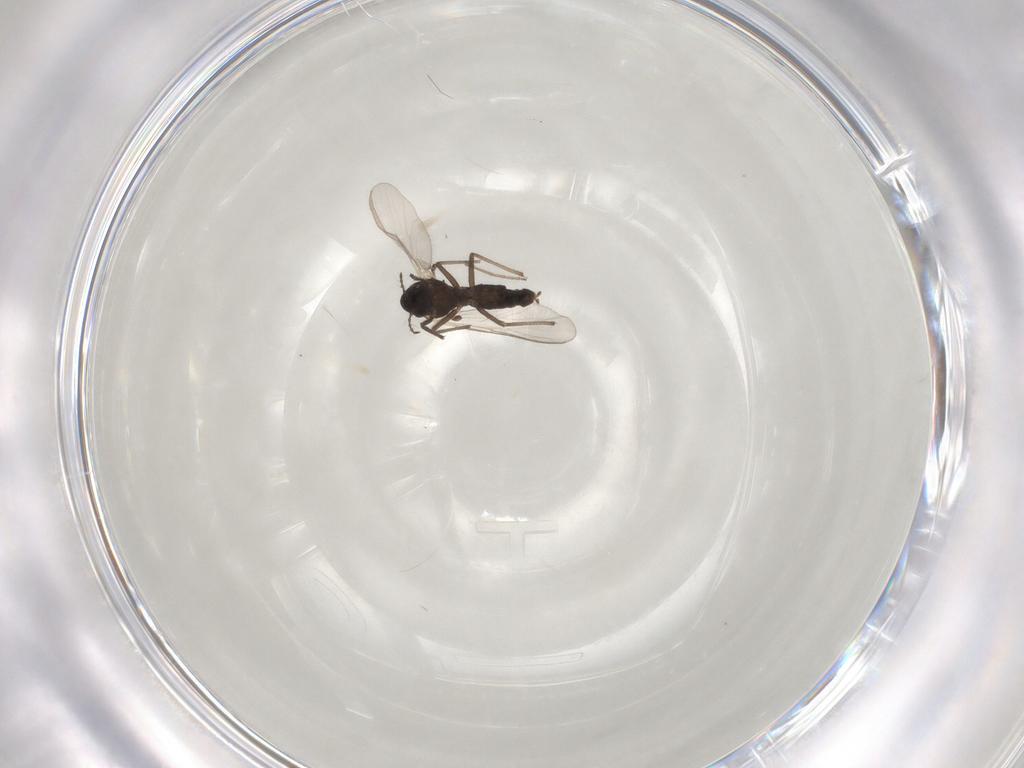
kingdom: Animalia
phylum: Arthropoda
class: Insecta
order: Diptera
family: Chironomidae
